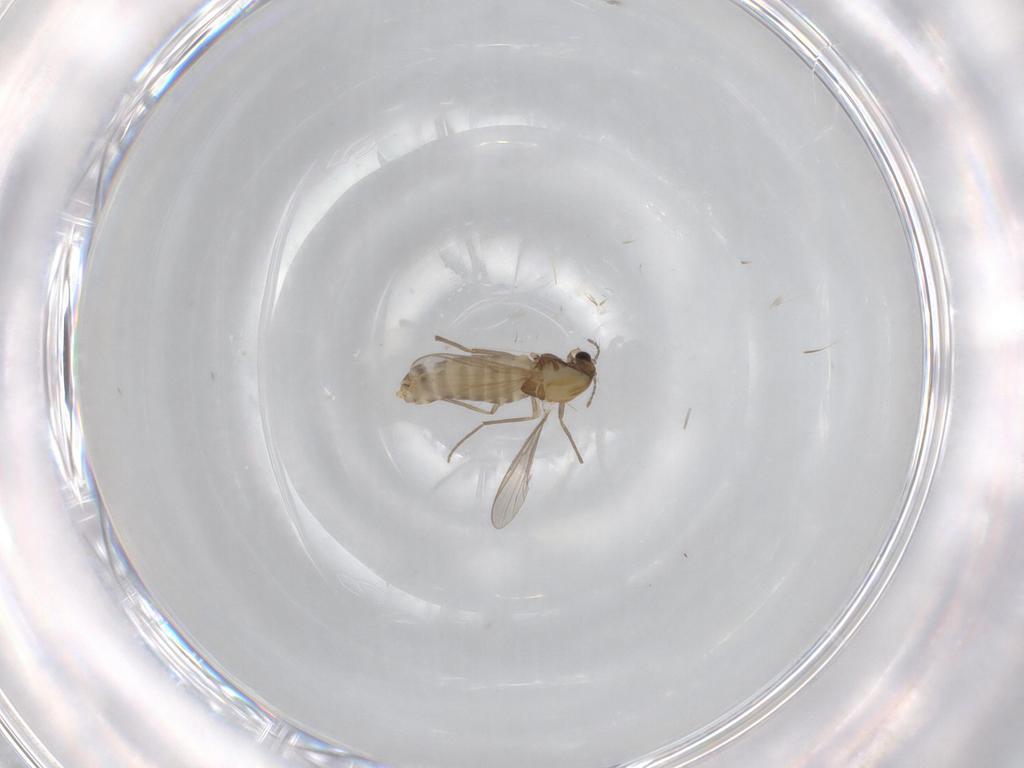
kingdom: Animalia
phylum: Arthropoda
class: Insecta
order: Diptera
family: Chironomidae
